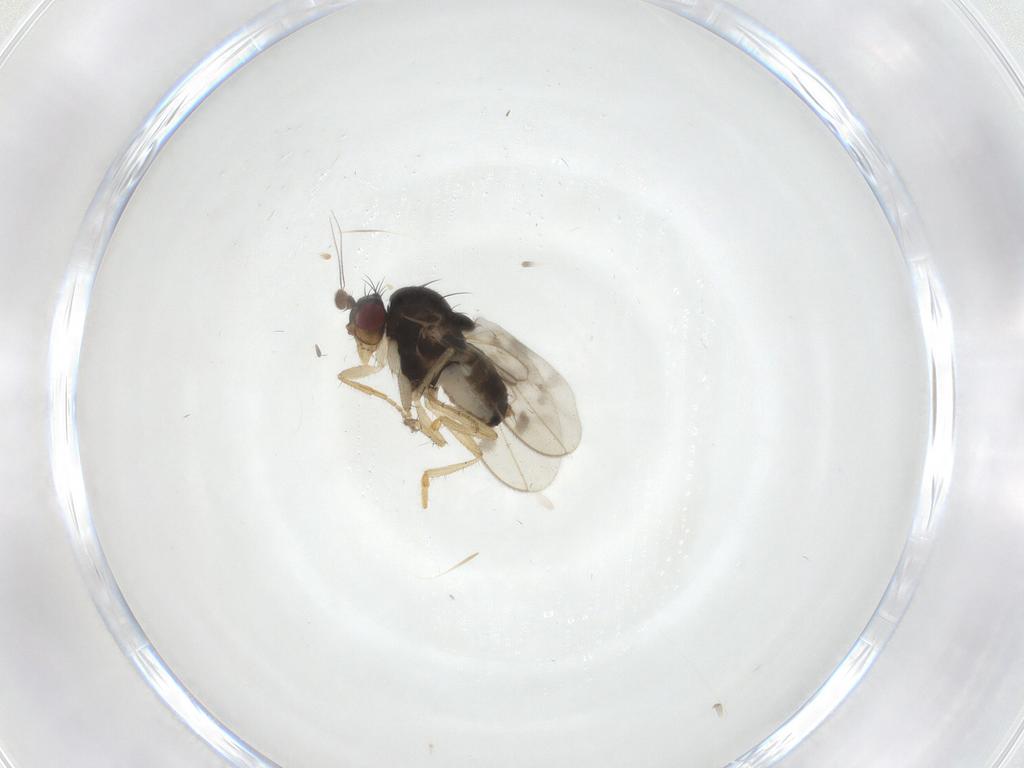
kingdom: Animalia
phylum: Arthropoda
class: Insecta
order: Diptera
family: Sphaeroceridae
